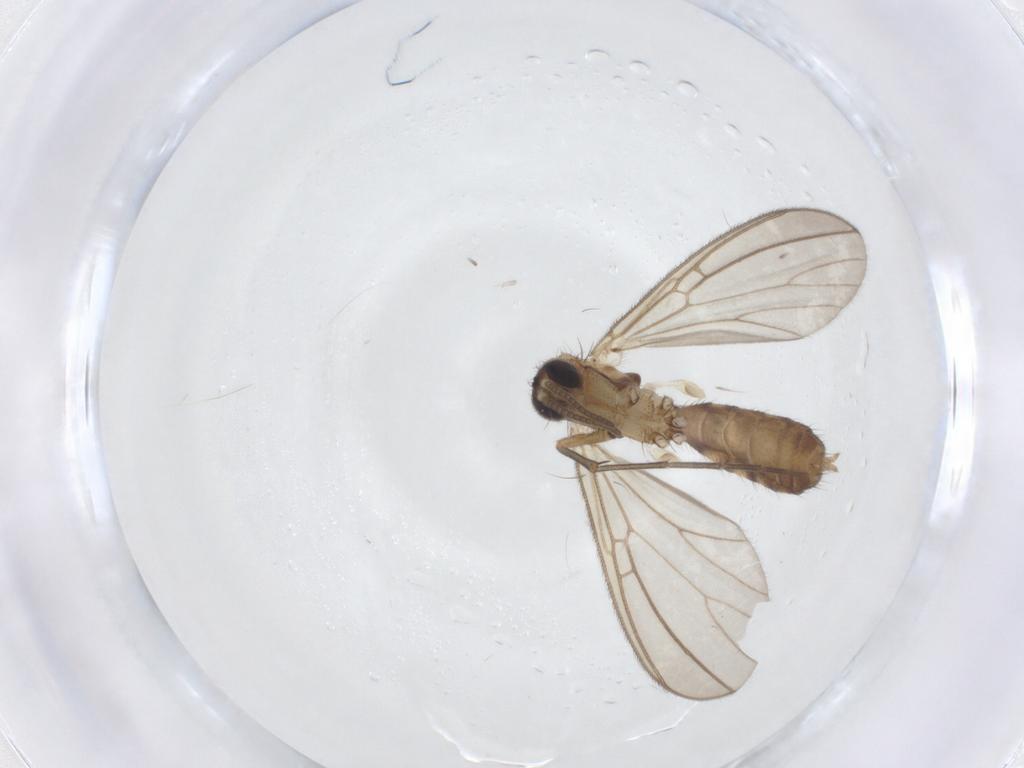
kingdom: Animalia
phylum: Arthropoda
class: Insecta
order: Diptera
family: Mycetophilidae
